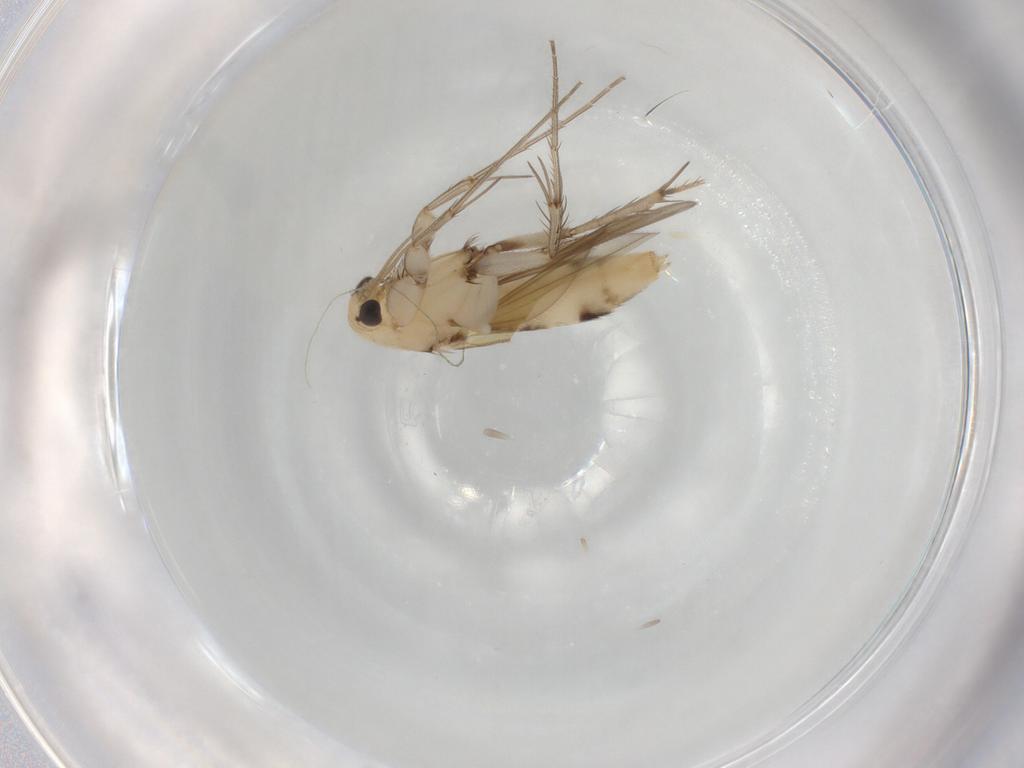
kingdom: Animalia
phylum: Arthropoda
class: Insecta
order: Diptera
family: Mycetophilidae
